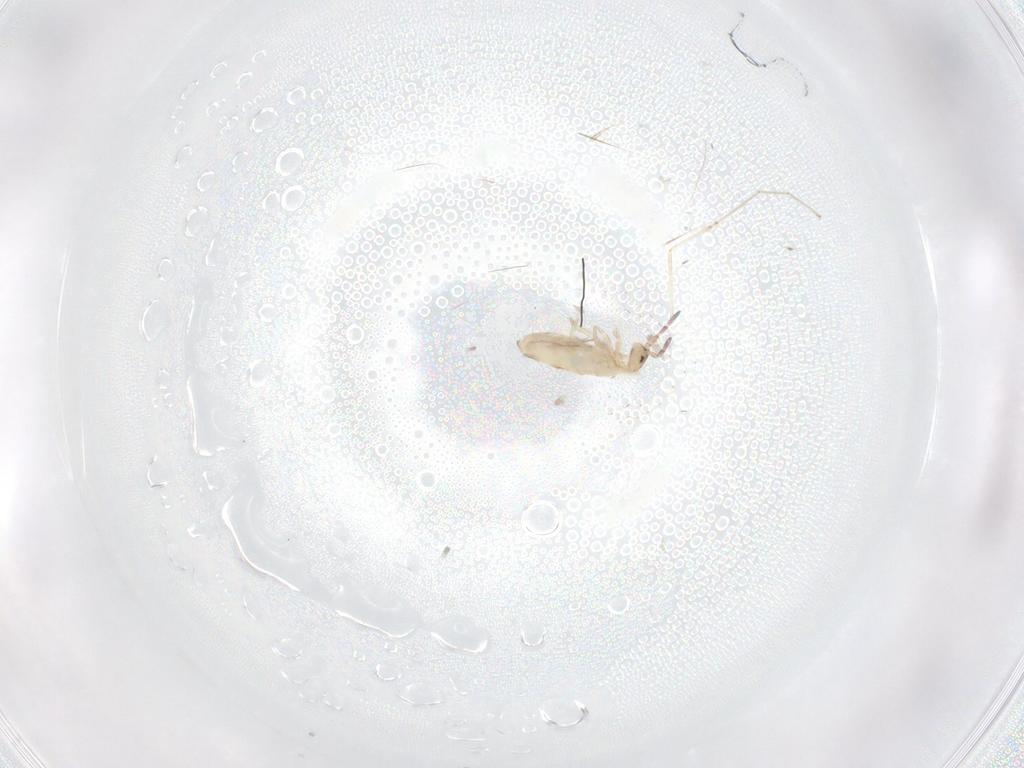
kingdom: Animalia
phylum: Arthropoda
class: Collembola
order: Entomobryomorpha
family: Entomobryidae
